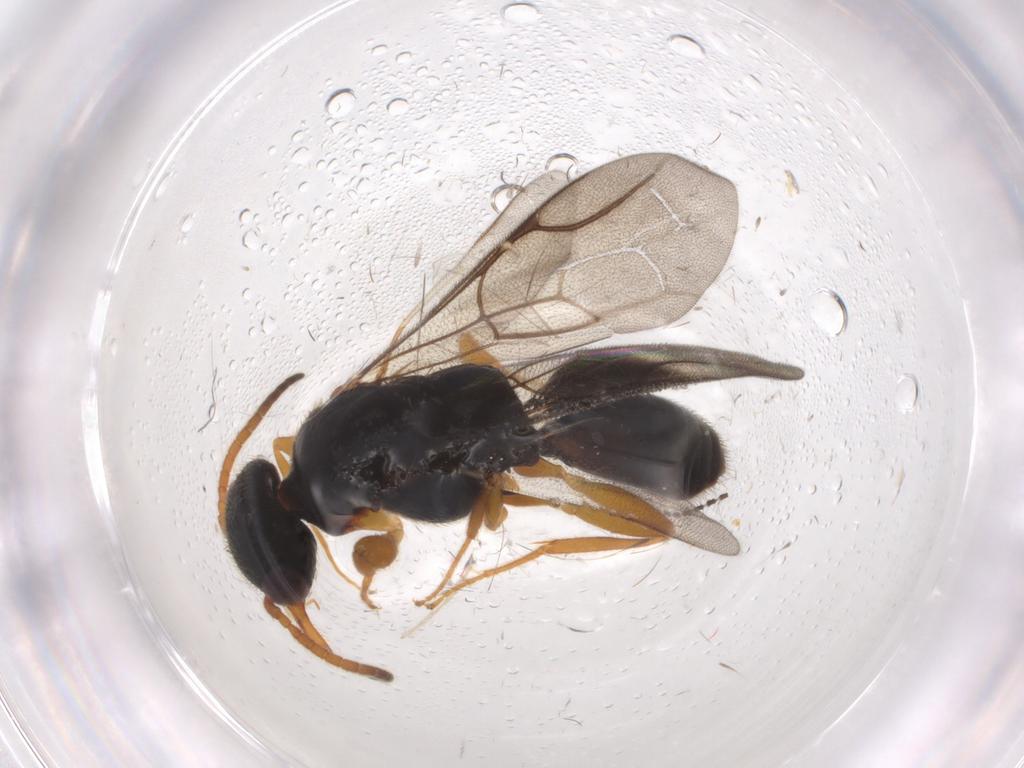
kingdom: Animalia
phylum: Arthropoda
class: Insecta
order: Hymenoptera
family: Bethylidae
